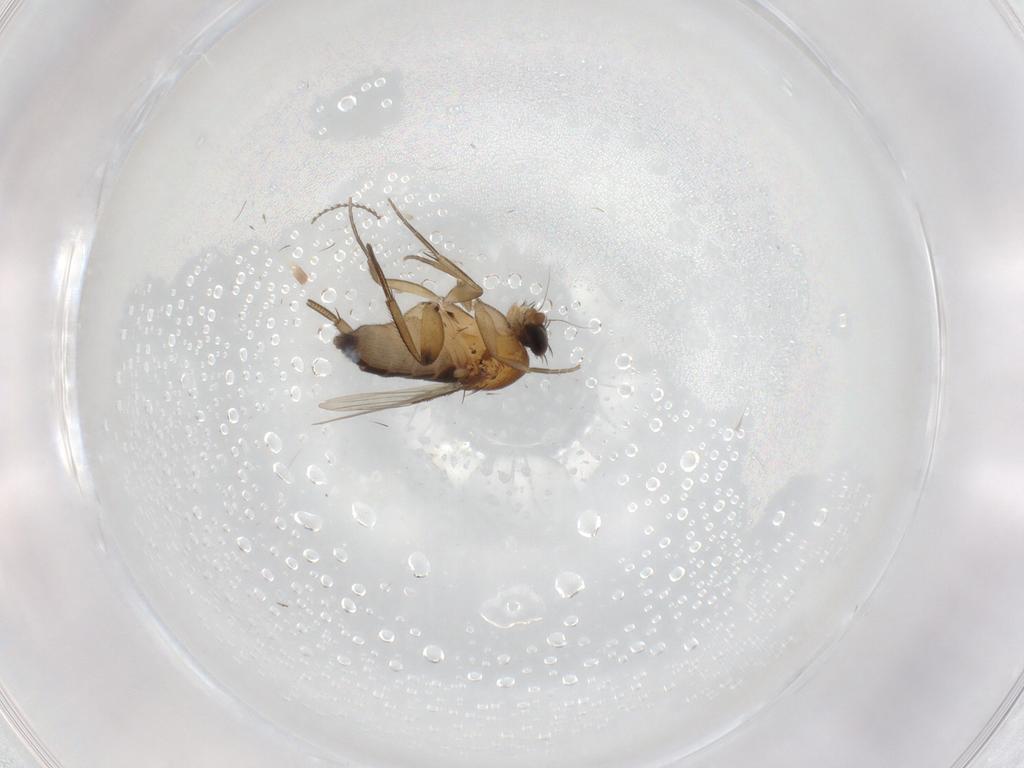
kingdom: Animalia
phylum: Arthropoda
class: Insecta
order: Diptera
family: Phoridae
